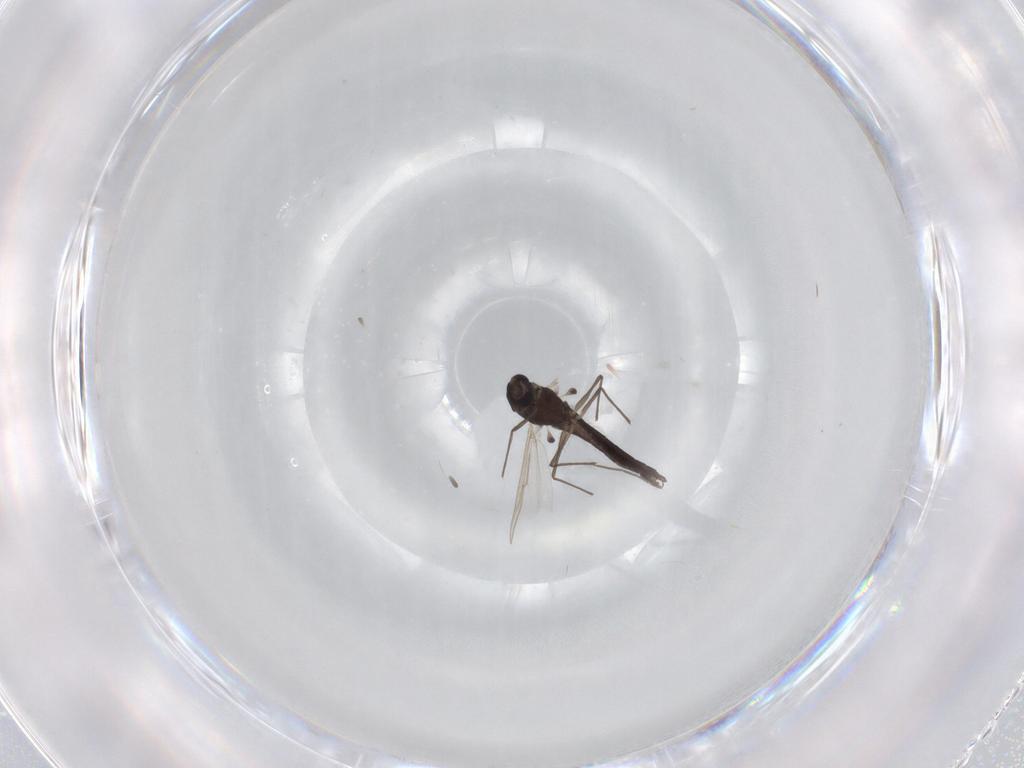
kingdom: Animalia
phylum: Arthropoda
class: Insecta
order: Diptera
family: Chironomidae
